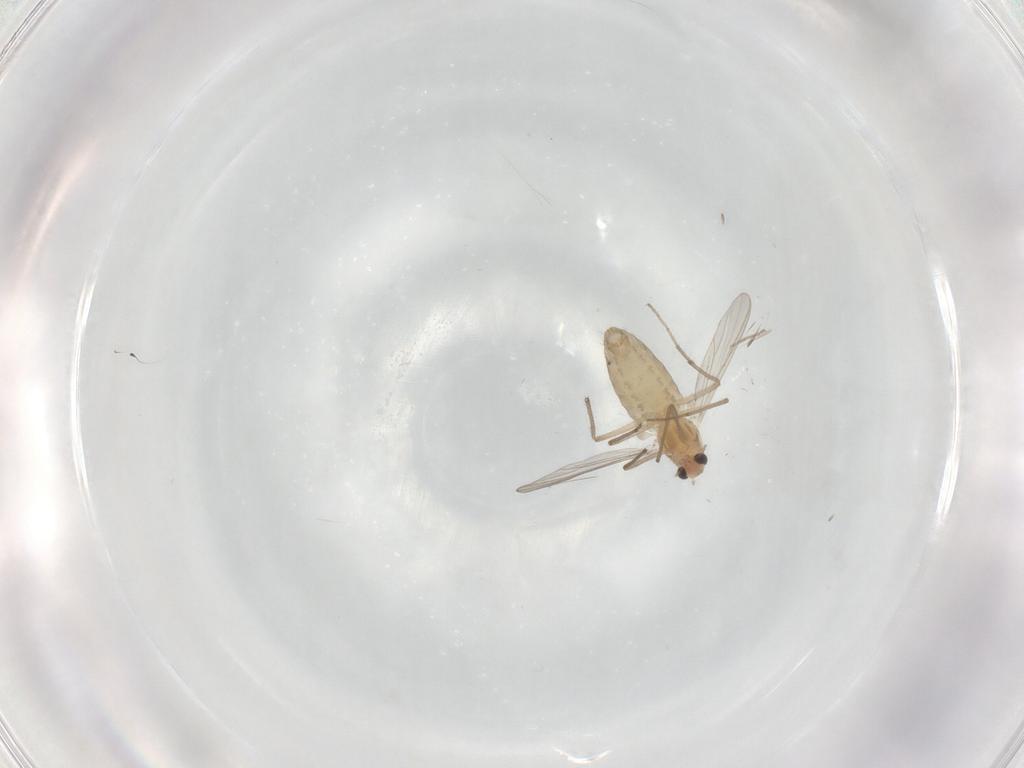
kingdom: Animalia
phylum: Arthropoda
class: Insecta
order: Diptera
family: Chironomidae
